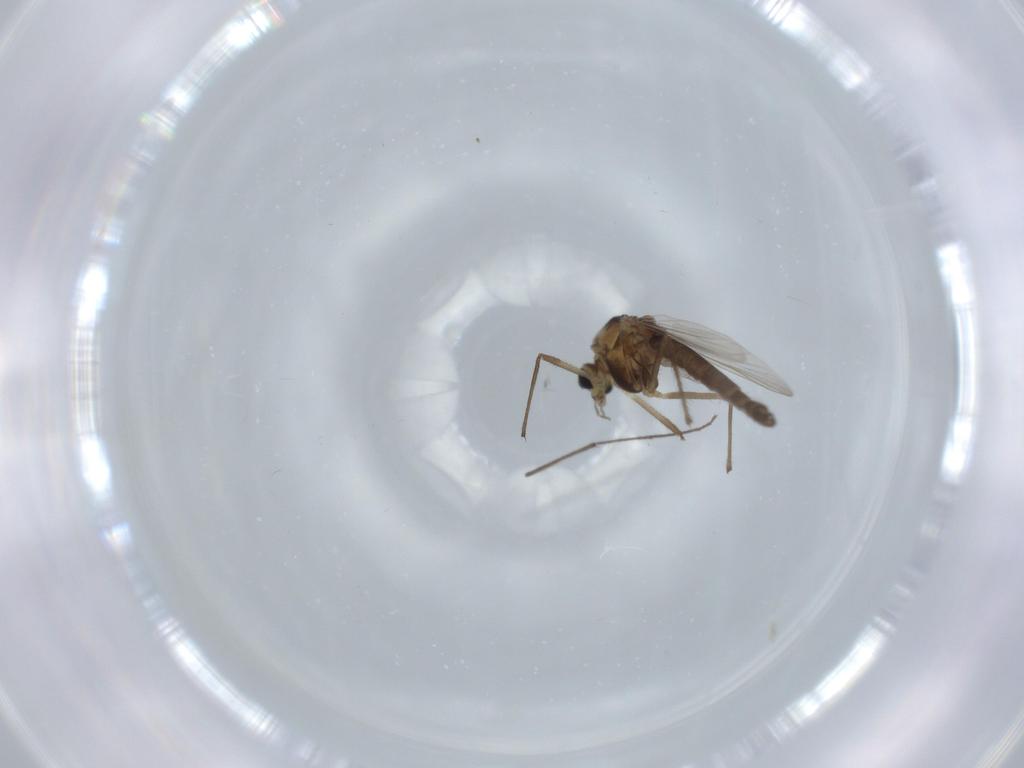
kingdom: Animalia
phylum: Arthropoda
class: Insecta
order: Diptera
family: Chironomidae
